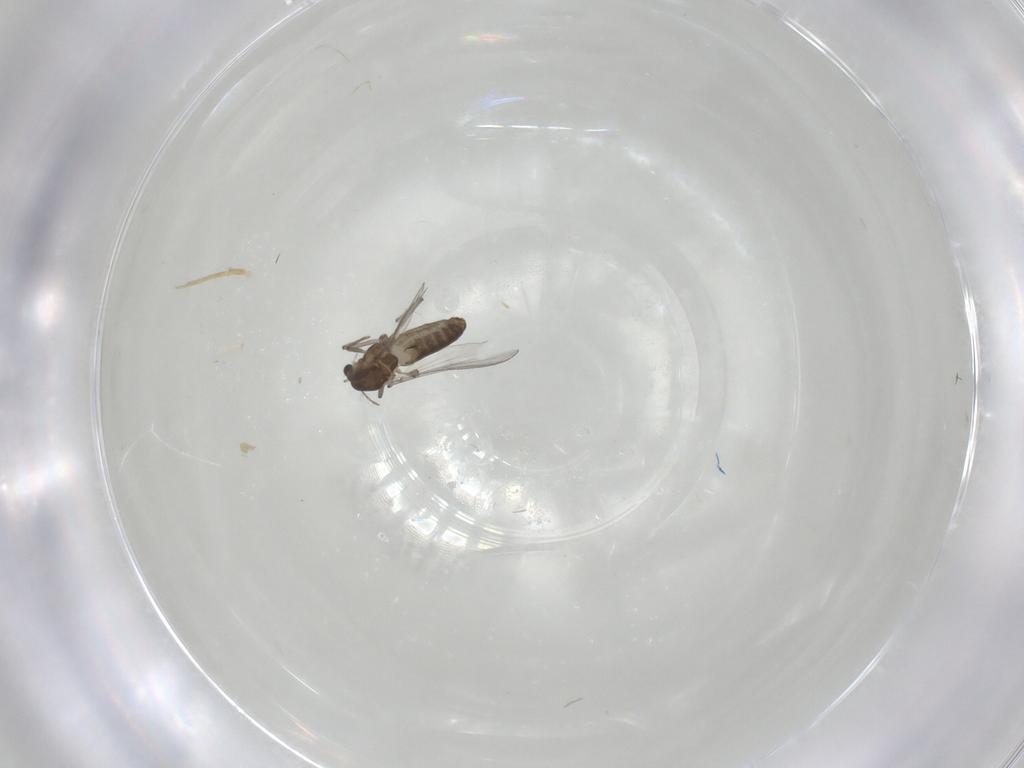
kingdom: Animalia
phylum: Arthropoda
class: Insecta
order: Diptera
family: Chironomidae
